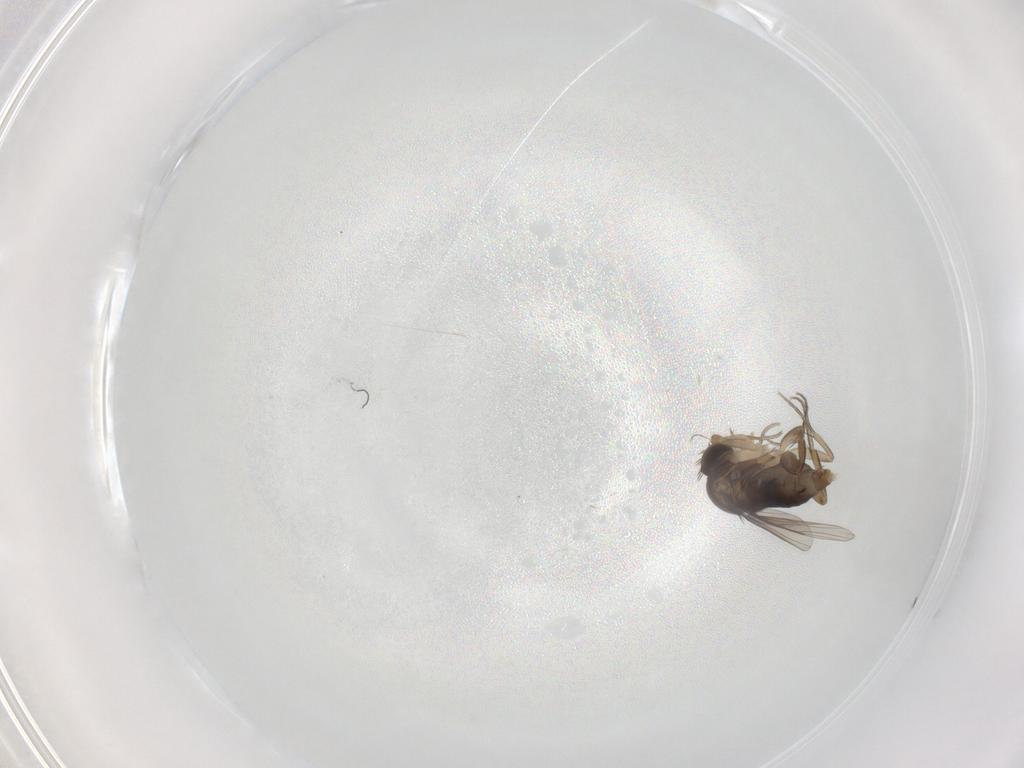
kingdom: Animalia
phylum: Arthropoda
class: Insecta
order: Diptera
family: Phoridae
